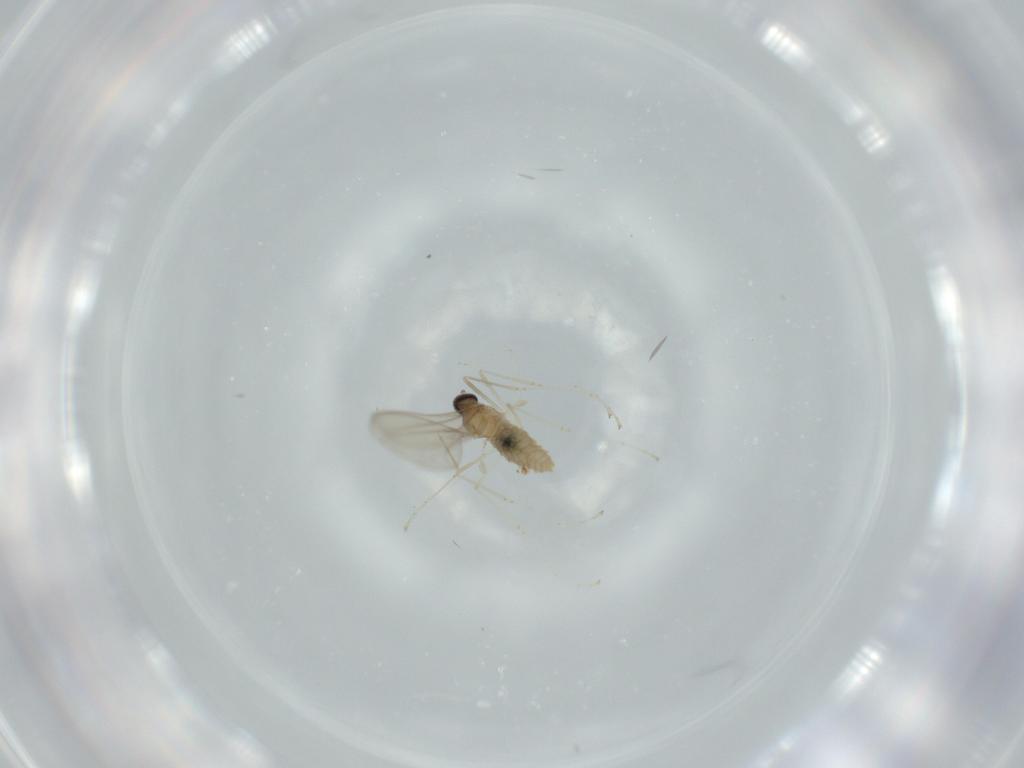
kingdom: Animalia
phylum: Arthropoda
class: Insecta
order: Diptera
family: Cecidomyiidae
